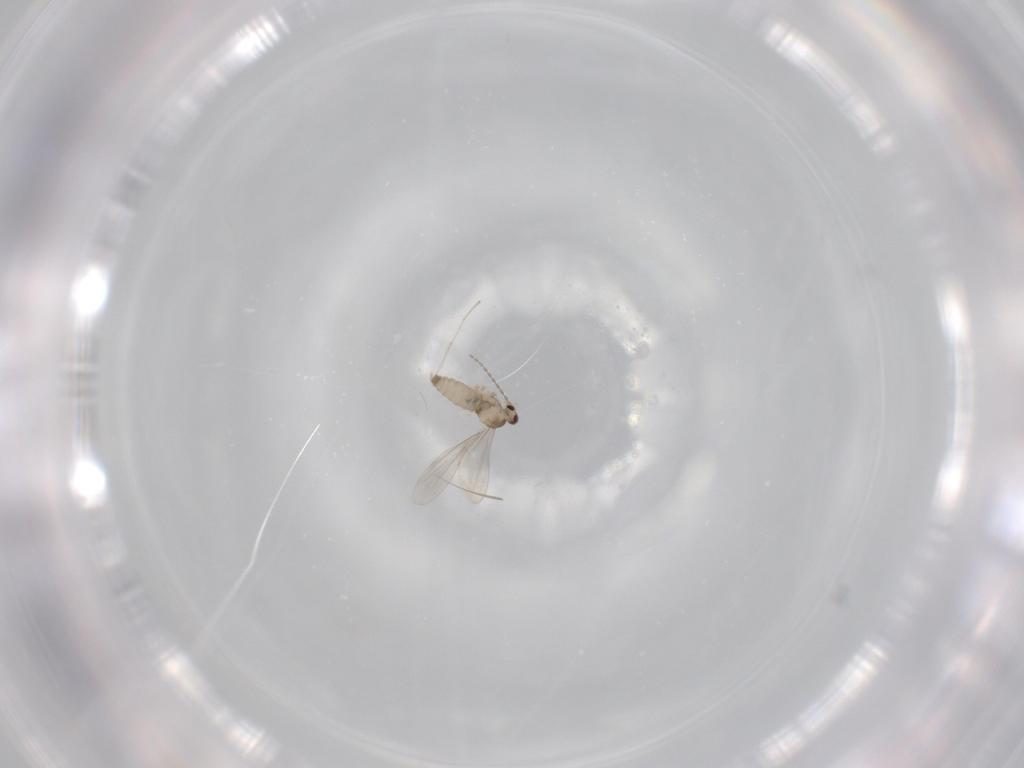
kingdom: Animalia
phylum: Arthropoda
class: Insecta
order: Diptera
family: Cecidomyiidae
